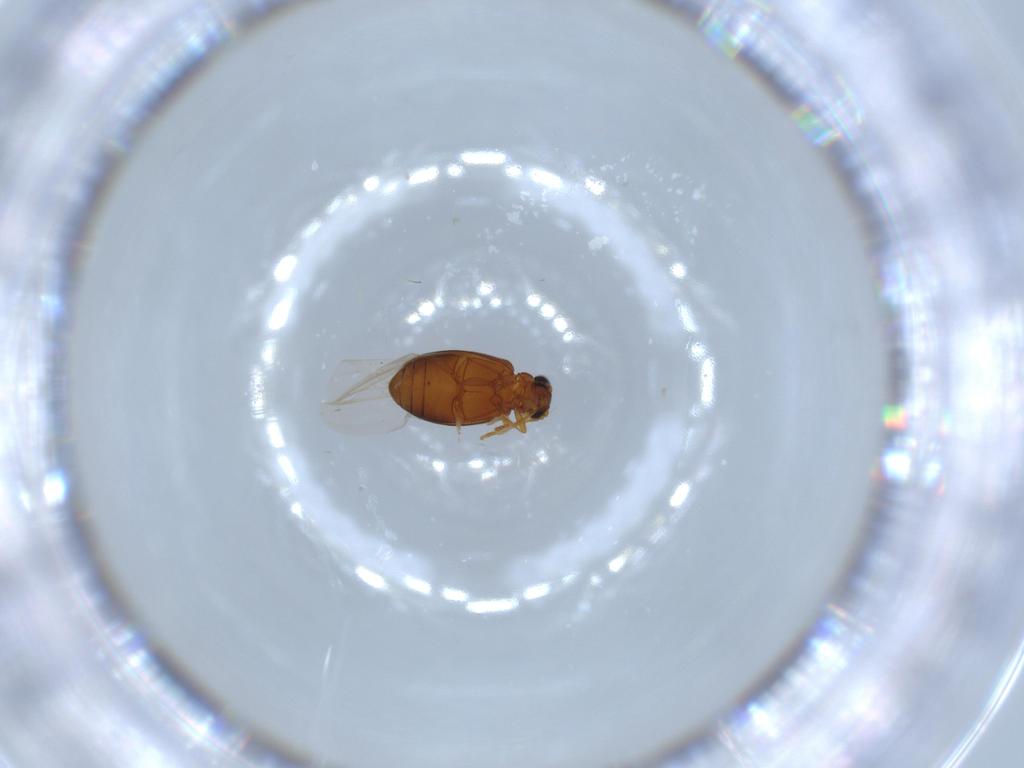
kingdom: Animalia
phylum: Arthropoda
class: Insecta
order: Coleoptera
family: Aderidae
